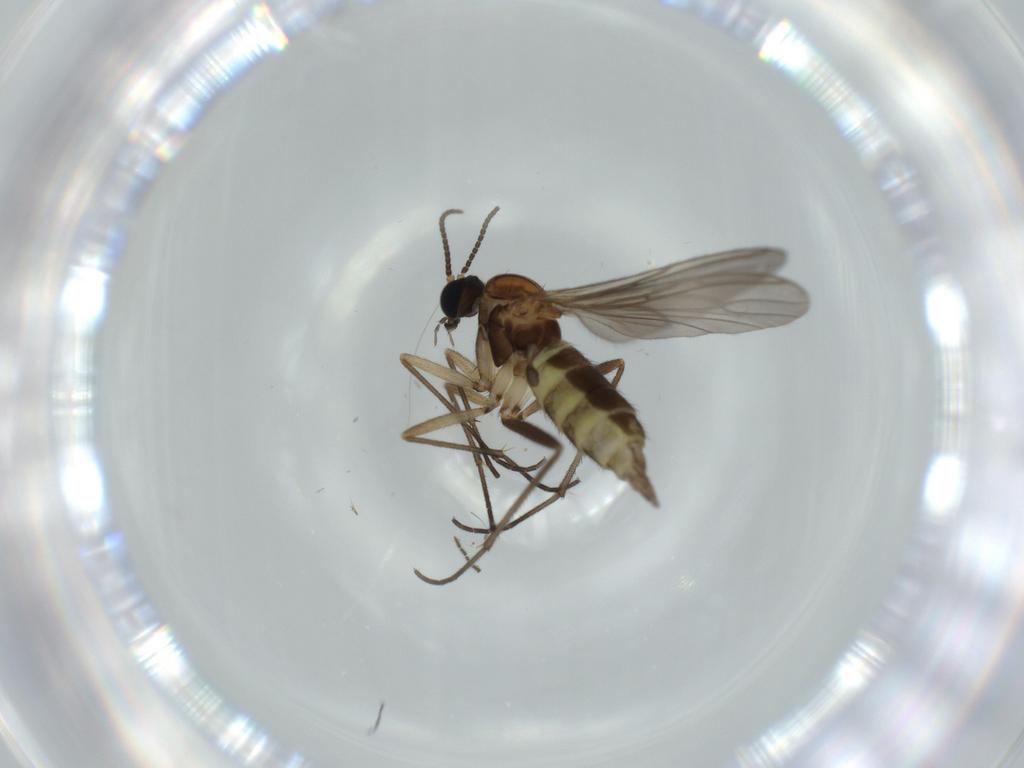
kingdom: Animalia
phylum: Arthropoda
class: Insecta
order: Diptera
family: Sciaridae
